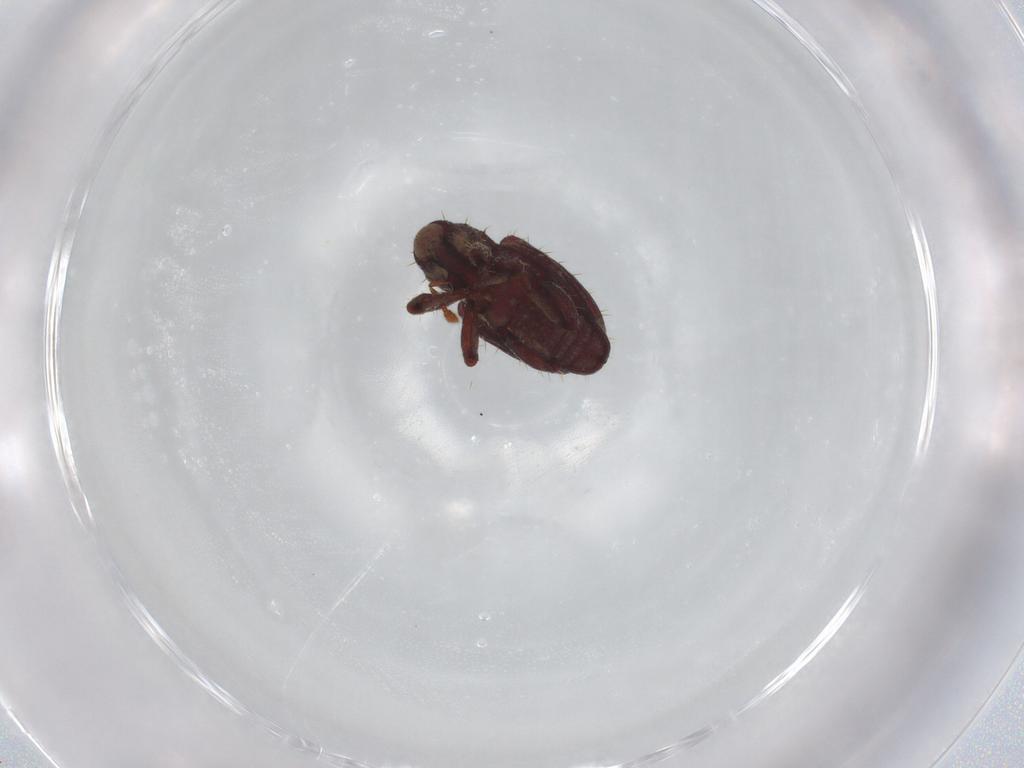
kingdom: Animalia
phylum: Arthropoda
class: Insecta
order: Coleoptera
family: Curculionidae
